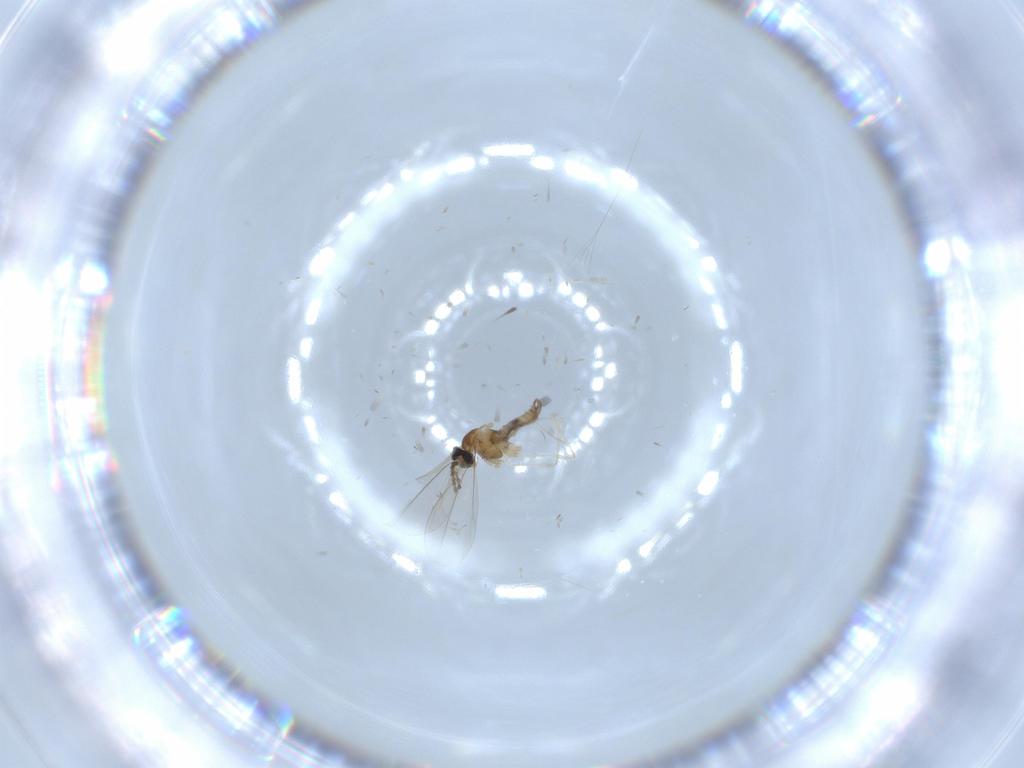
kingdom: Animalia
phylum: Arthropoda
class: Insecta
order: Diptera
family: Cecidomyiidae
